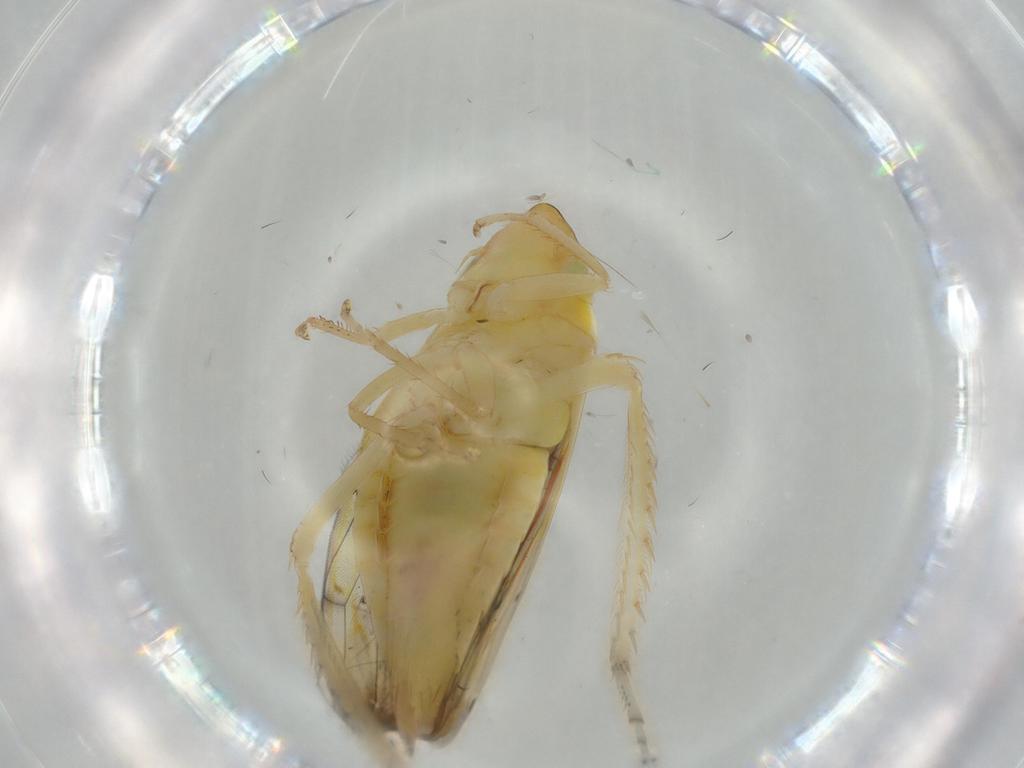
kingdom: Animalia
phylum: Arthropoda
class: Insecta
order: Hemiptera
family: Cicadellidae
